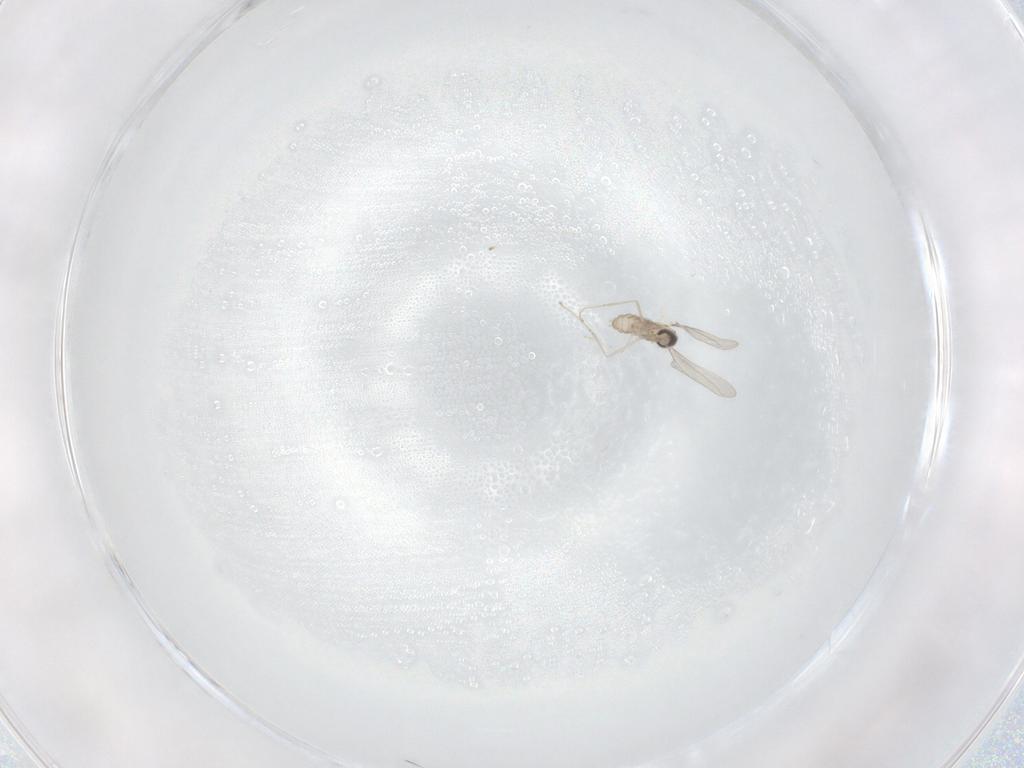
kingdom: Animalia
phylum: Arthropoda
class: Insecta
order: Diptera
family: Cecidomyiidae
